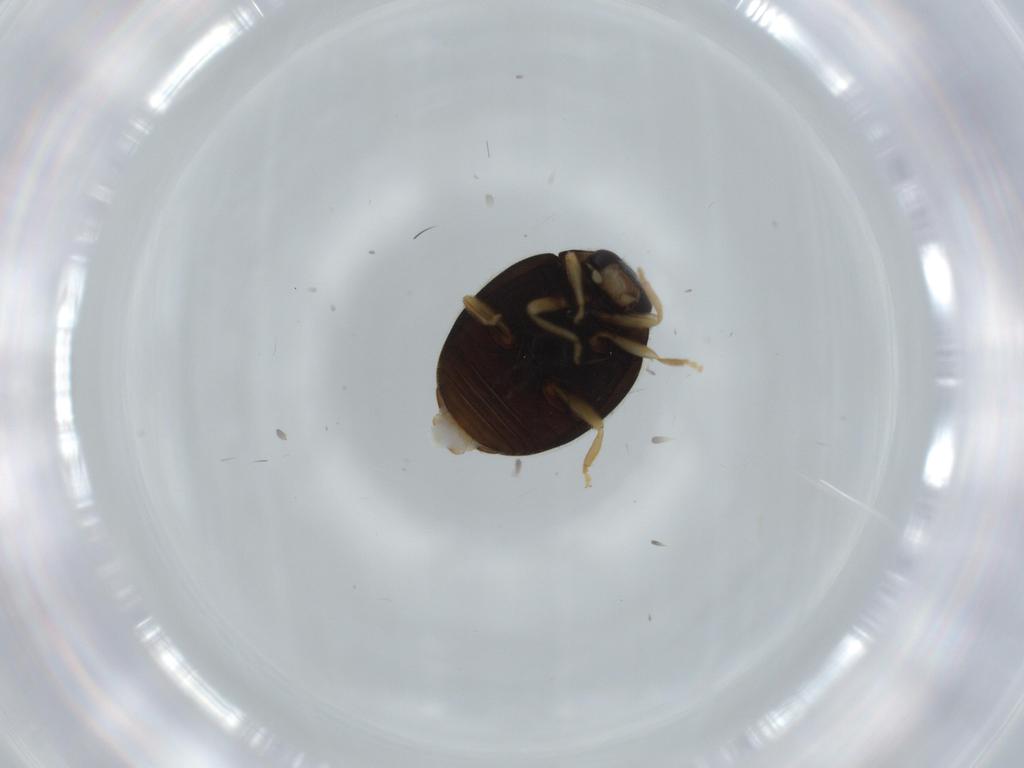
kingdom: Animalia
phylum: Arthropoda
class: Insecta
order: Coleoptera
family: Coccinellidae
